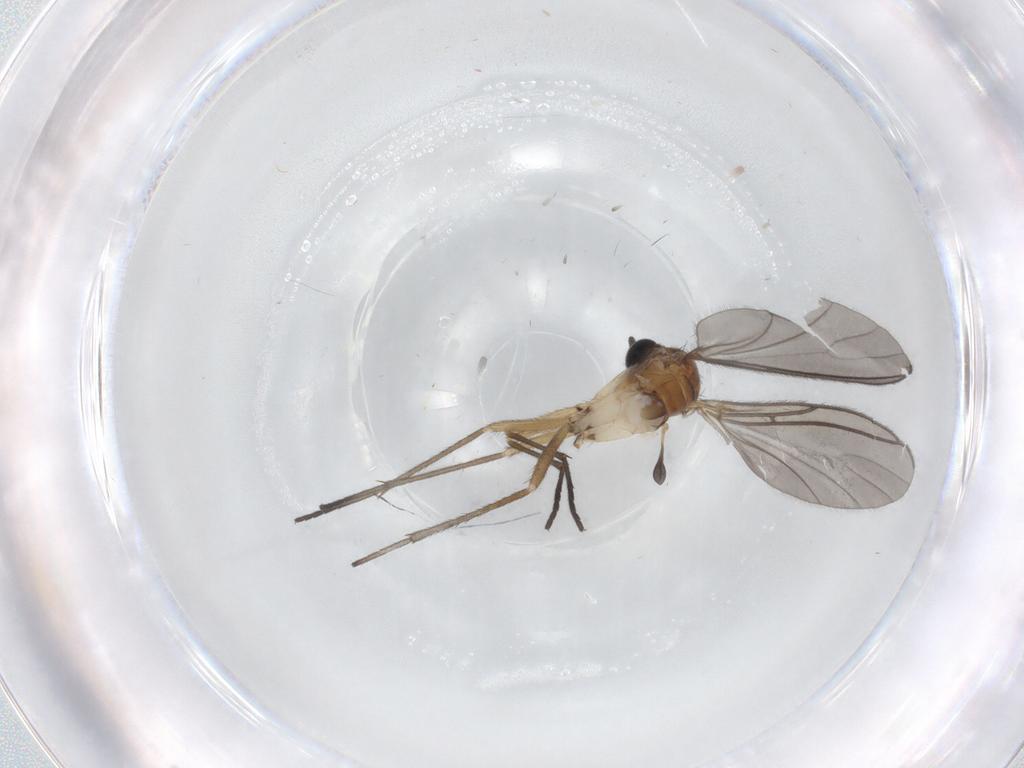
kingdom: Animalia
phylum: Arthropoda
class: Insecta
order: Diptera
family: Sciaridae
